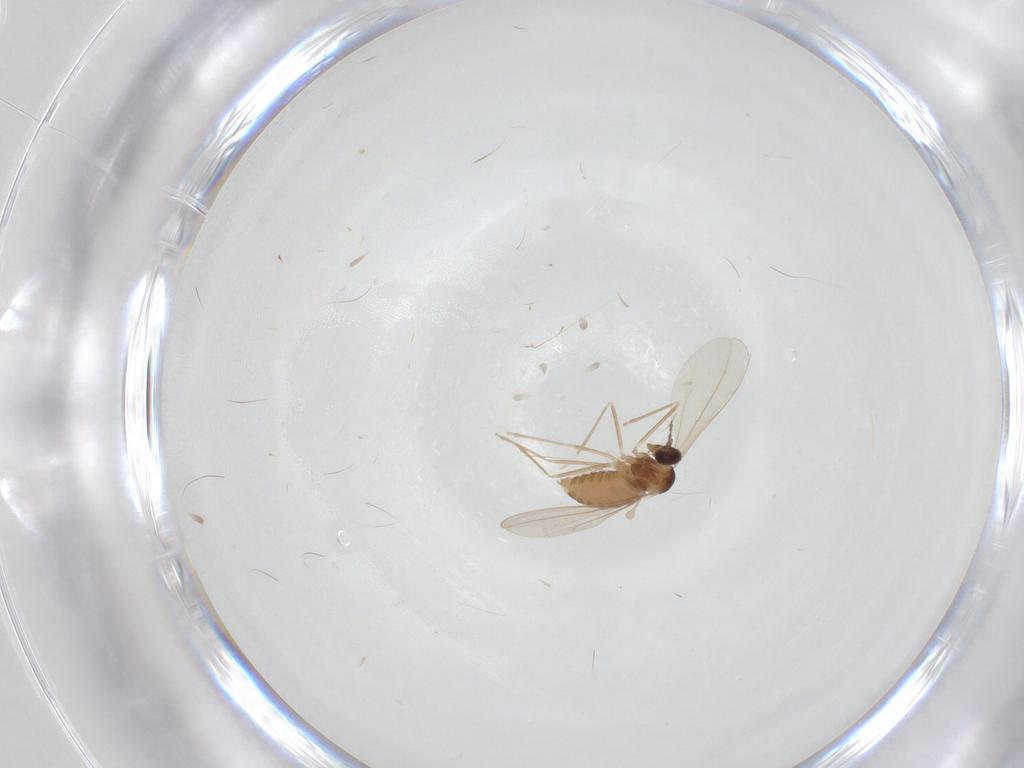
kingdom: Animalia
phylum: Arthropoda
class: Insecta
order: Diptera
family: Cecidomyiidae
